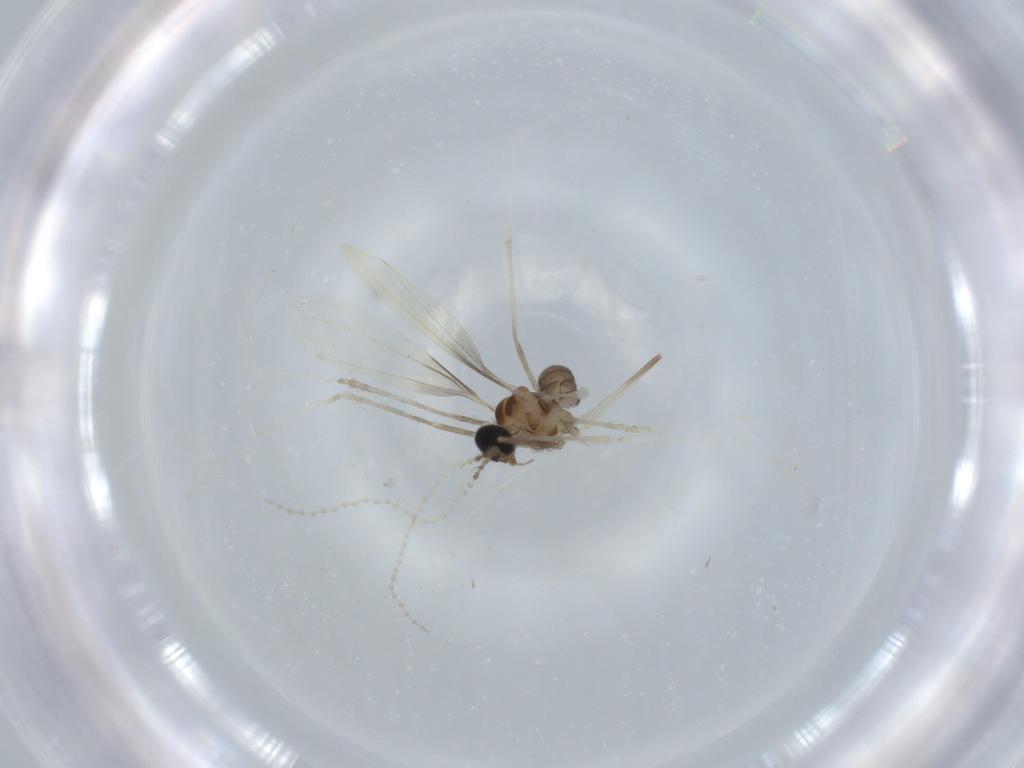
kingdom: Animalia
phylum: Arthropoda
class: Insecta
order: Diptera
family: Cecidomyiidae
